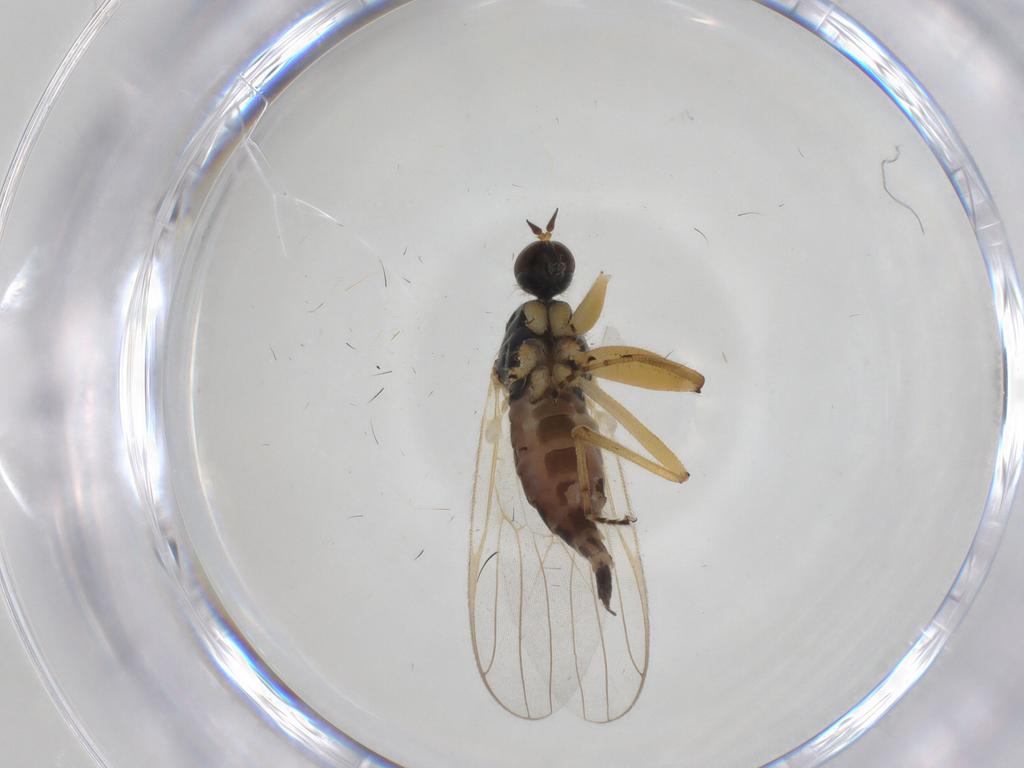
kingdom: Animalia
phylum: Arthropoda
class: Insecta
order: Diptera
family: Hybotidae
